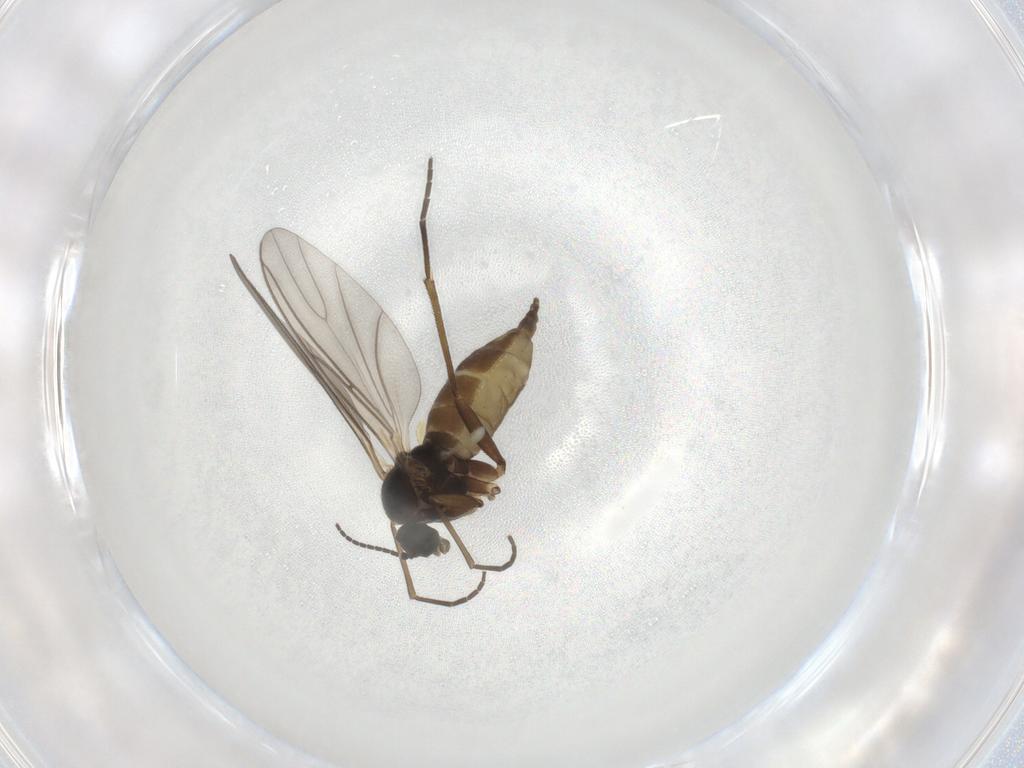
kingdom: Animalia
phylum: Arthropoda
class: Insecta
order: Diptera
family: Sciaridae
